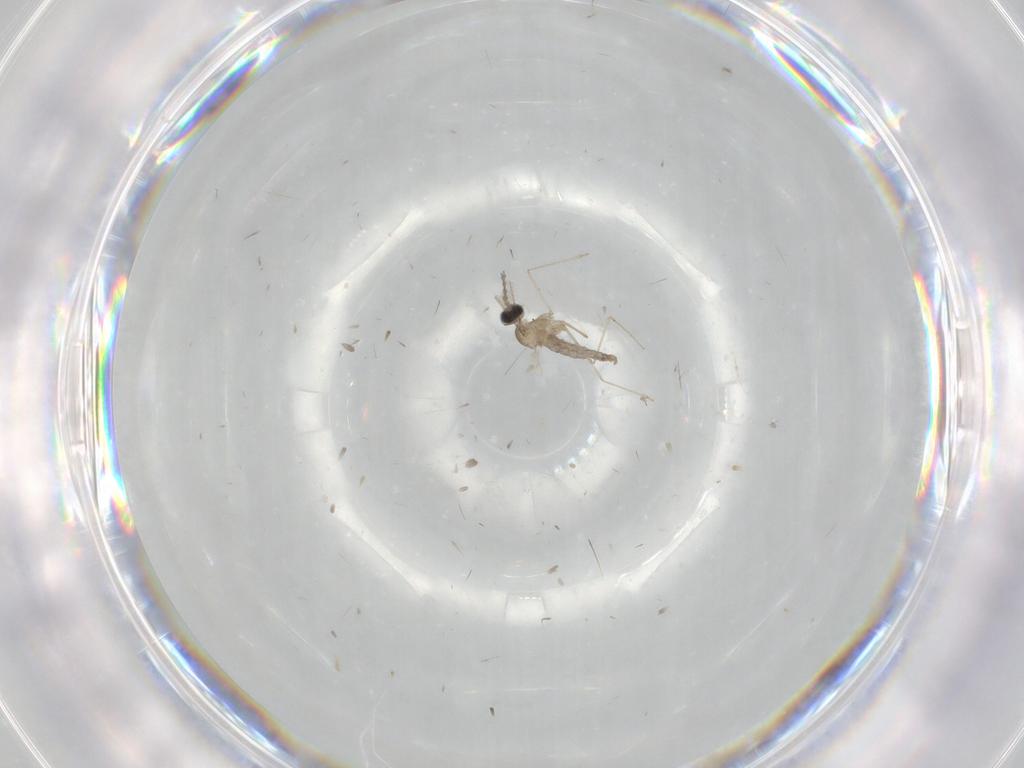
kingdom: Animalia
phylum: Arthropoda
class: Insecta
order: Diptera
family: Cecidomyiidae
